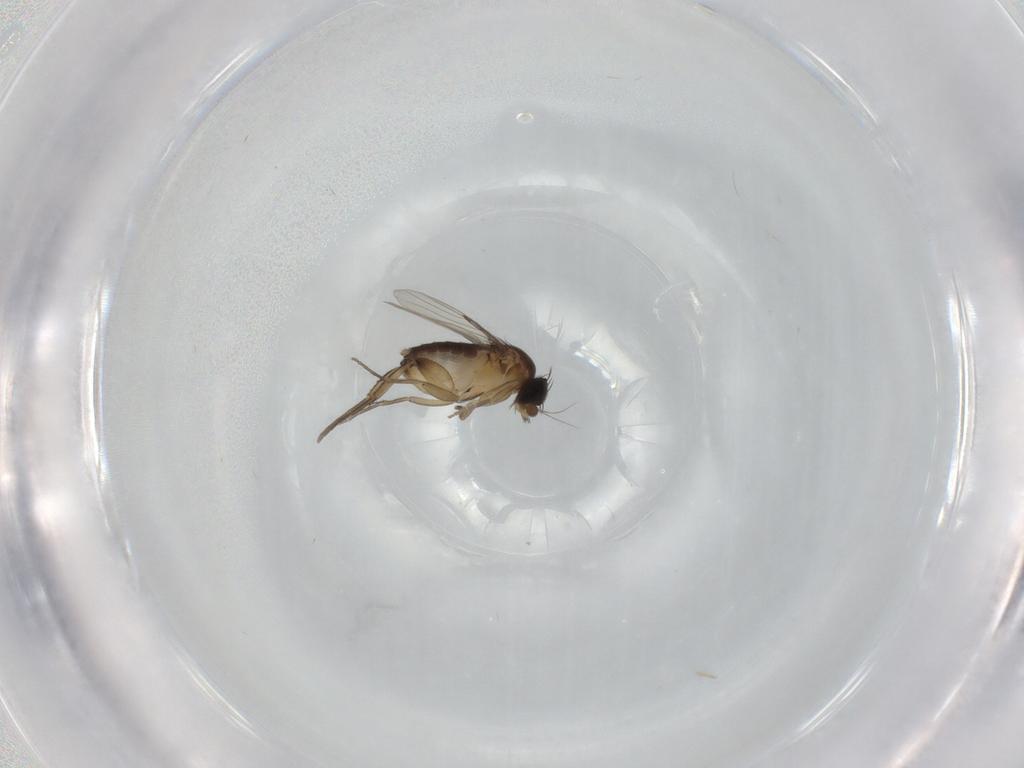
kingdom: Animalia
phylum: Arthropoda
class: Insecta
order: Diptera
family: Phoridae
